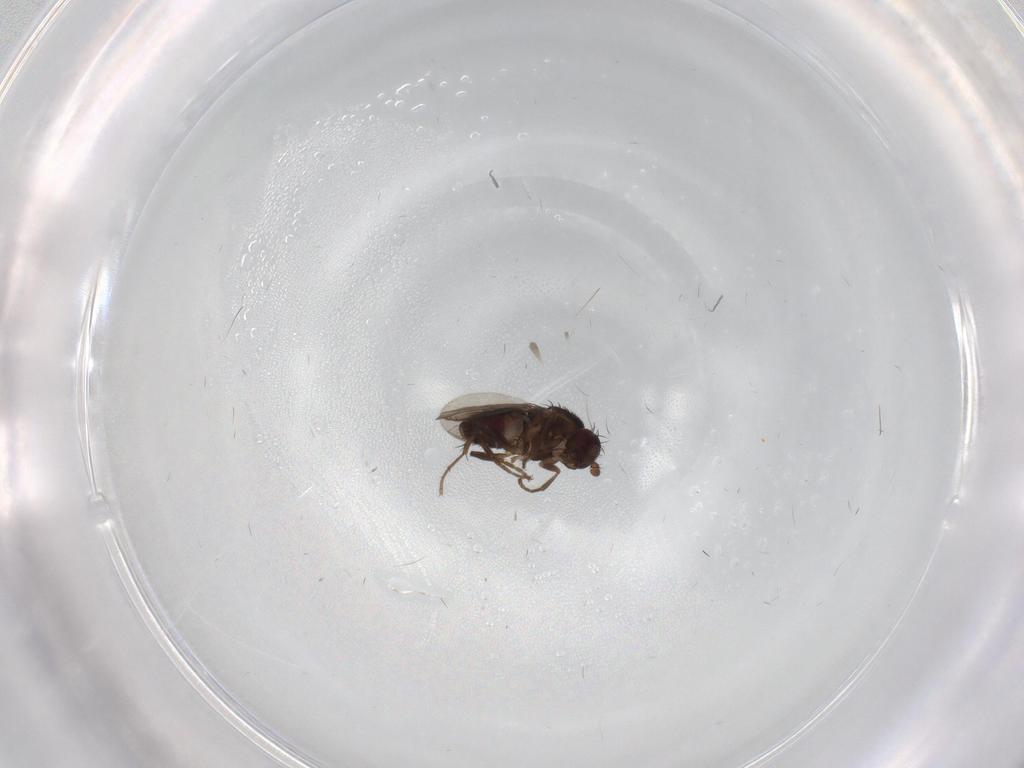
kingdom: Animalia
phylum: Arthropoda
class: Insecta
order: Diptera
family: Sphaeroceridae
